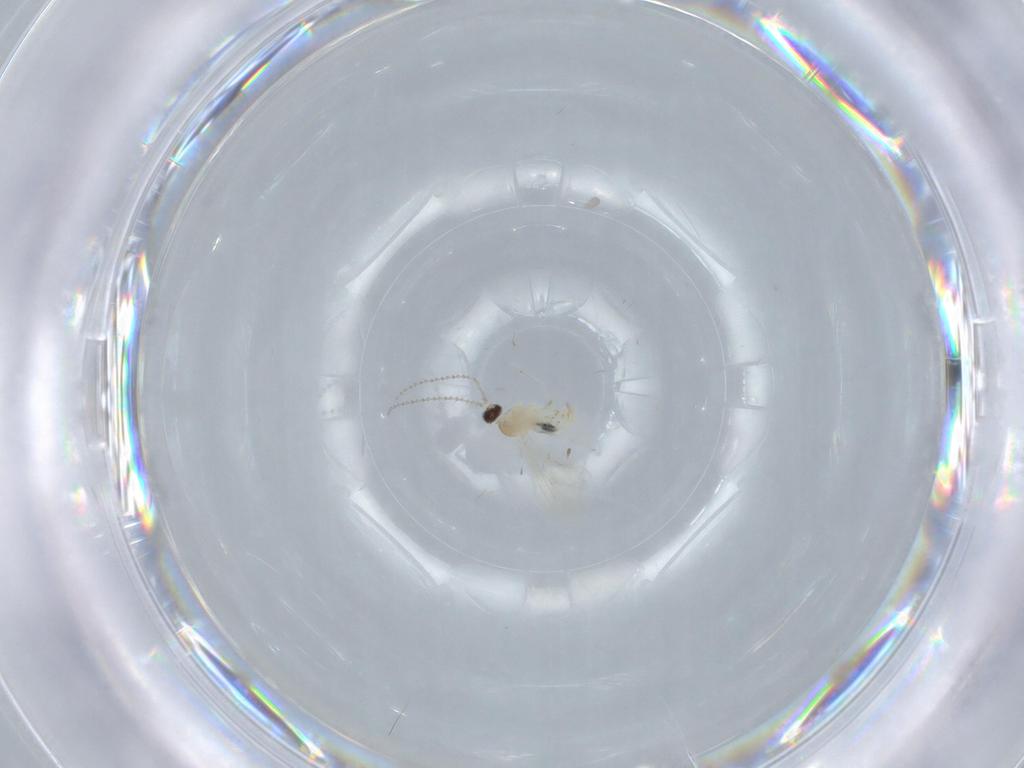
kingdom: Animalia
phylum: Arthropoda
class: Insecta
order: Diptera
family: Cecidomyiidae
